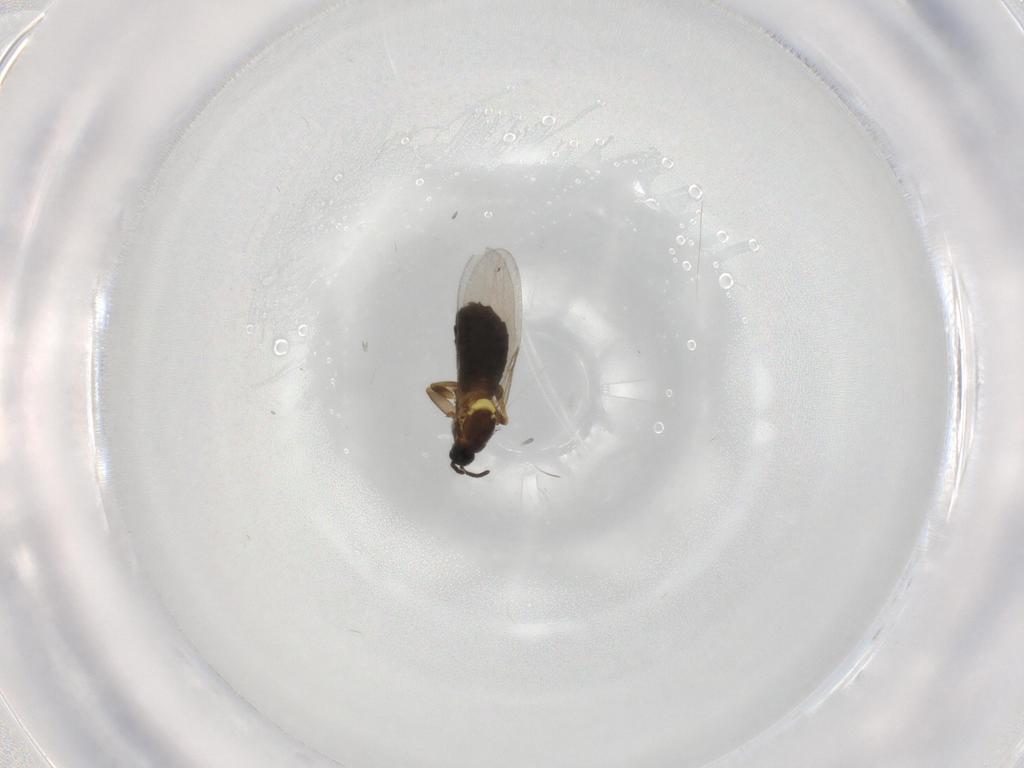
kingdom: Animalia
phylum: Arthropoda
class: Insecta
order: Diptera
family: Scatopsidae
